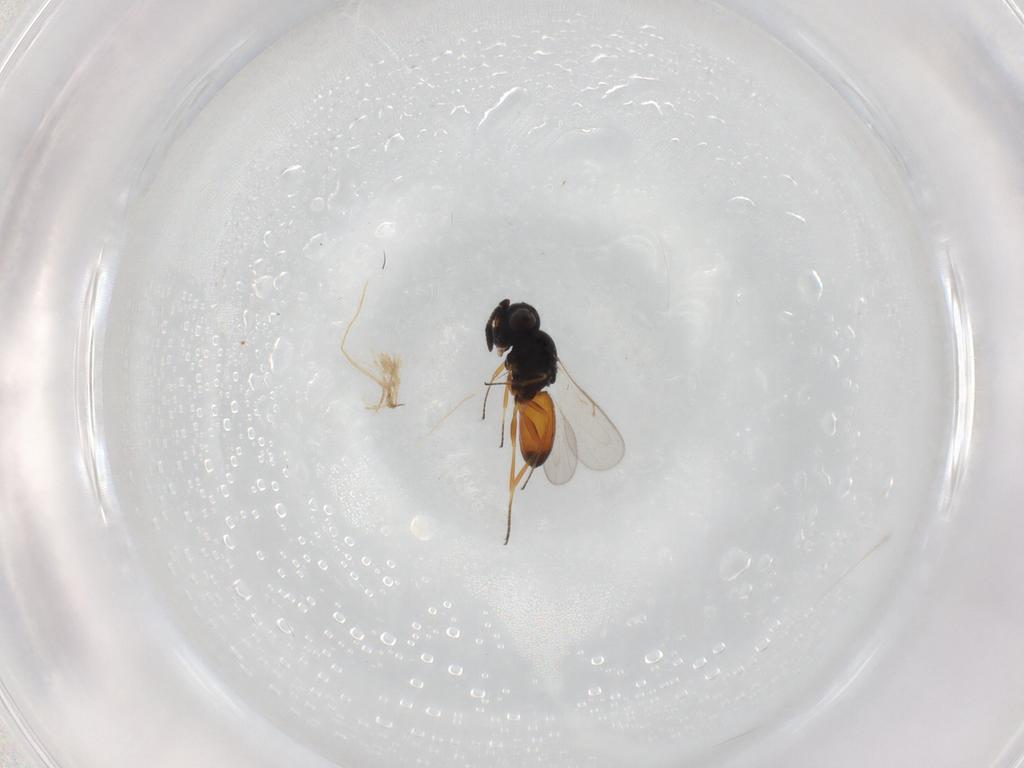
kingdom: Animalia
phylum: Arthropoda
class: Insecta
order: Hymenoptera
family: Scelionidae
